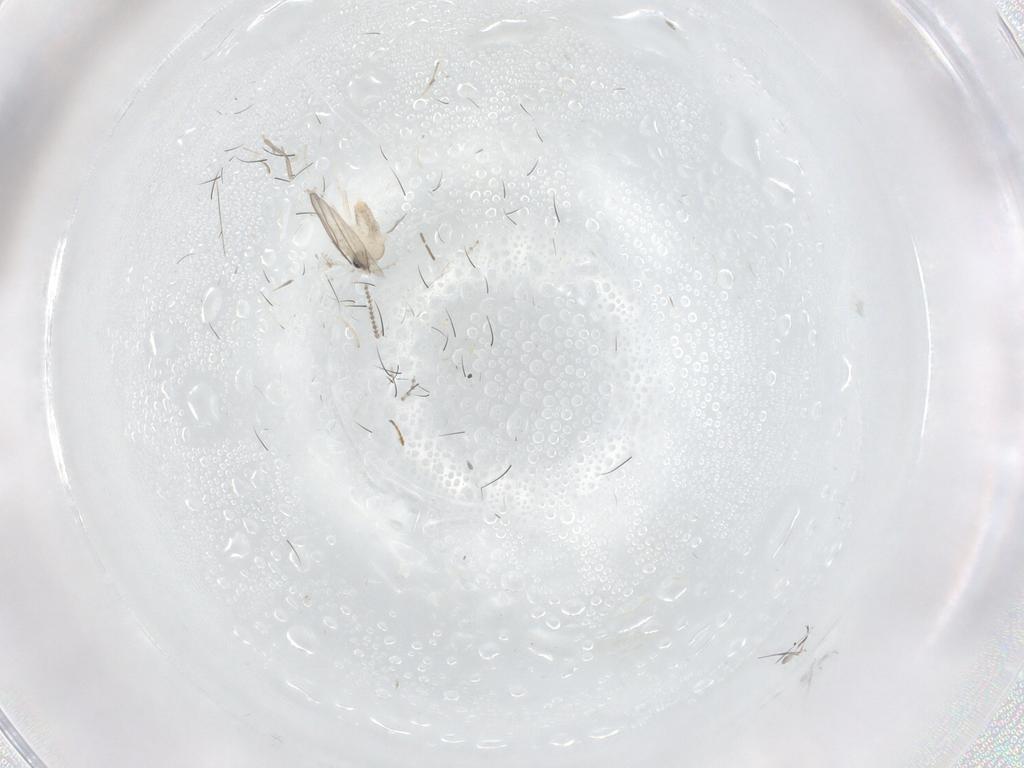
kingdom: Animalia
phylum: Arthropoda
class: Insecta
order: Diptera
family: Cecidomyiidae
